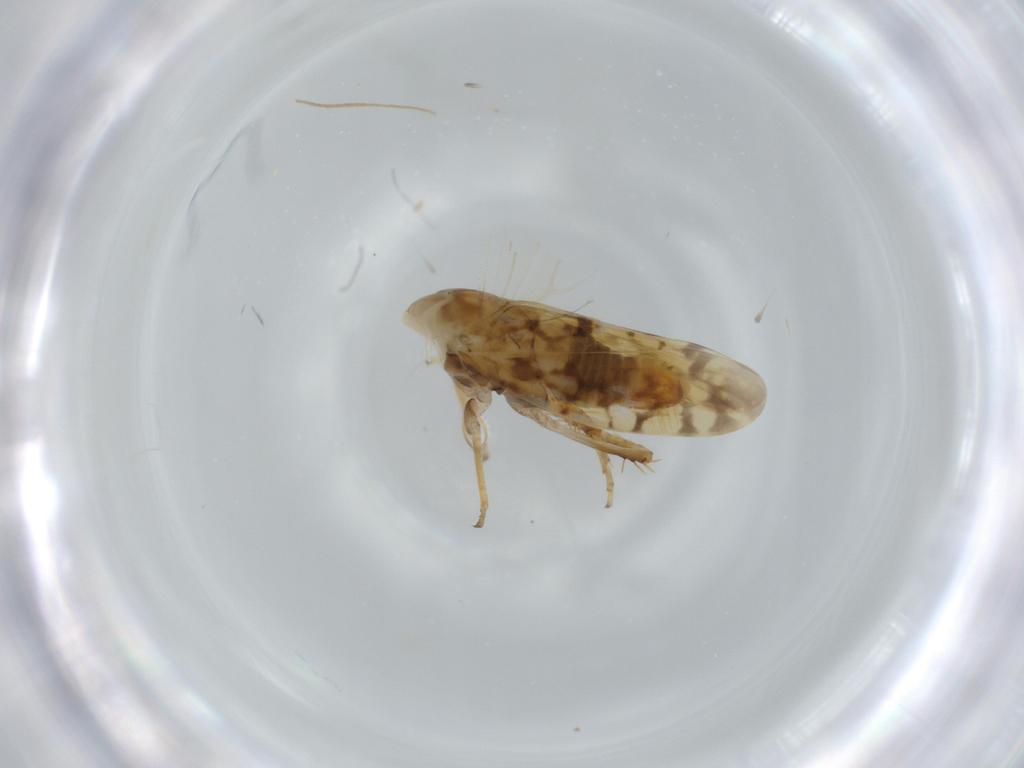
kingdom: Animalia
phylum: Arthropoda
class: Insecta
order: Hemiptera
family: Cicadellidae
